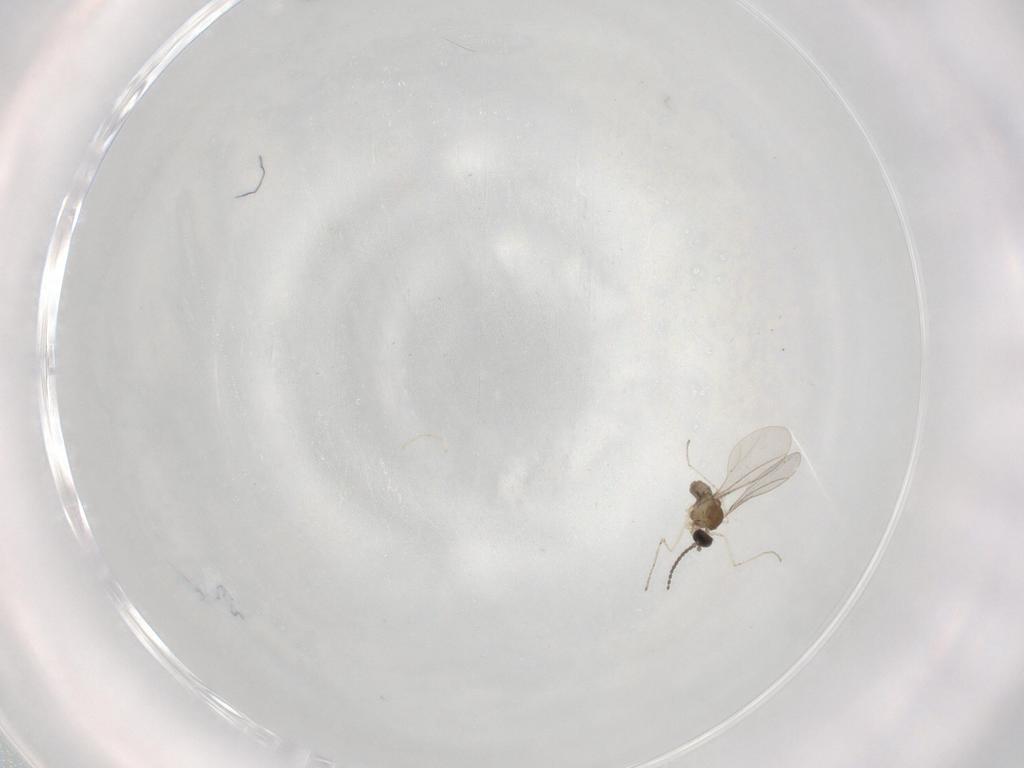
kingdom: Animalia
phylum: Arthropoda
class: Insecta
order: Diptera
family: Cecidomyiidae
